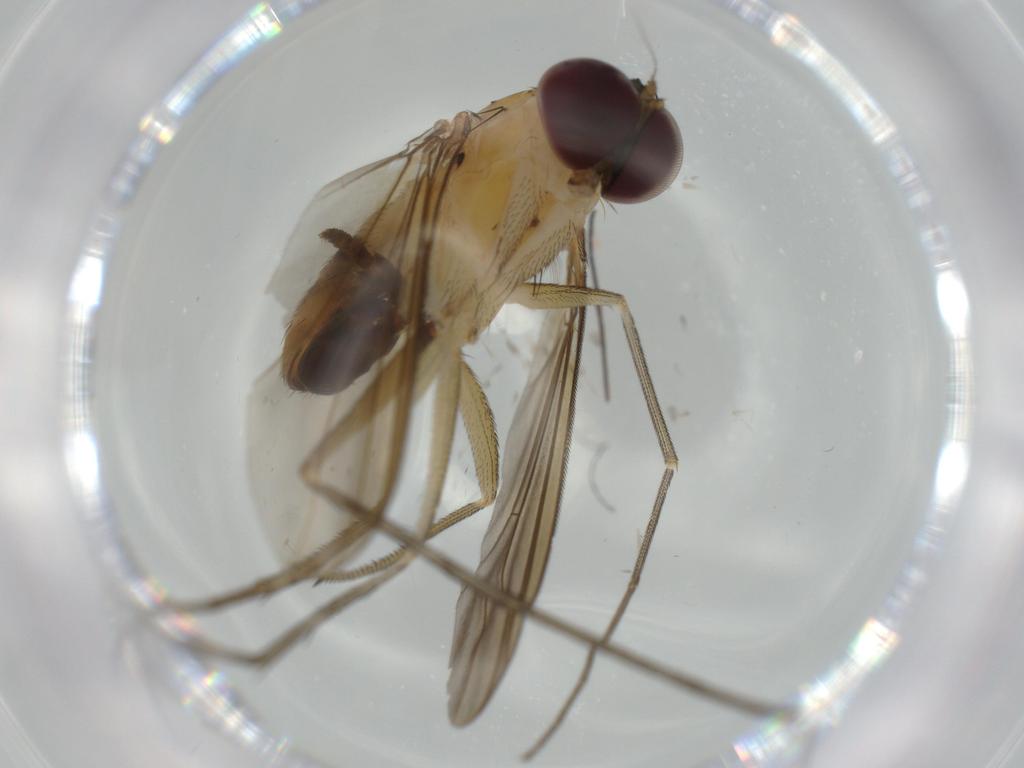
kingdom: Animalia
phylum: Arthropoda
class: Insecta
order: Diptera
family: Dolichopodidae
